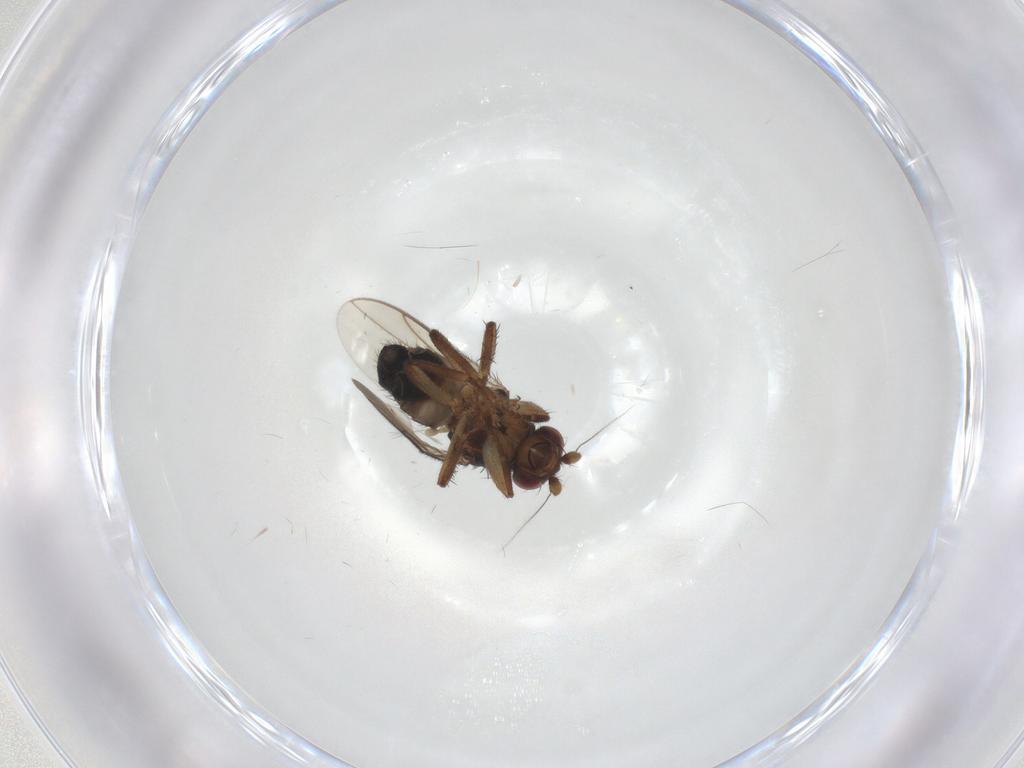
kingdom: Animalia
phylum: Arthropoda
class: Insecta
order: Diptera
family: Sphaeroceridae
